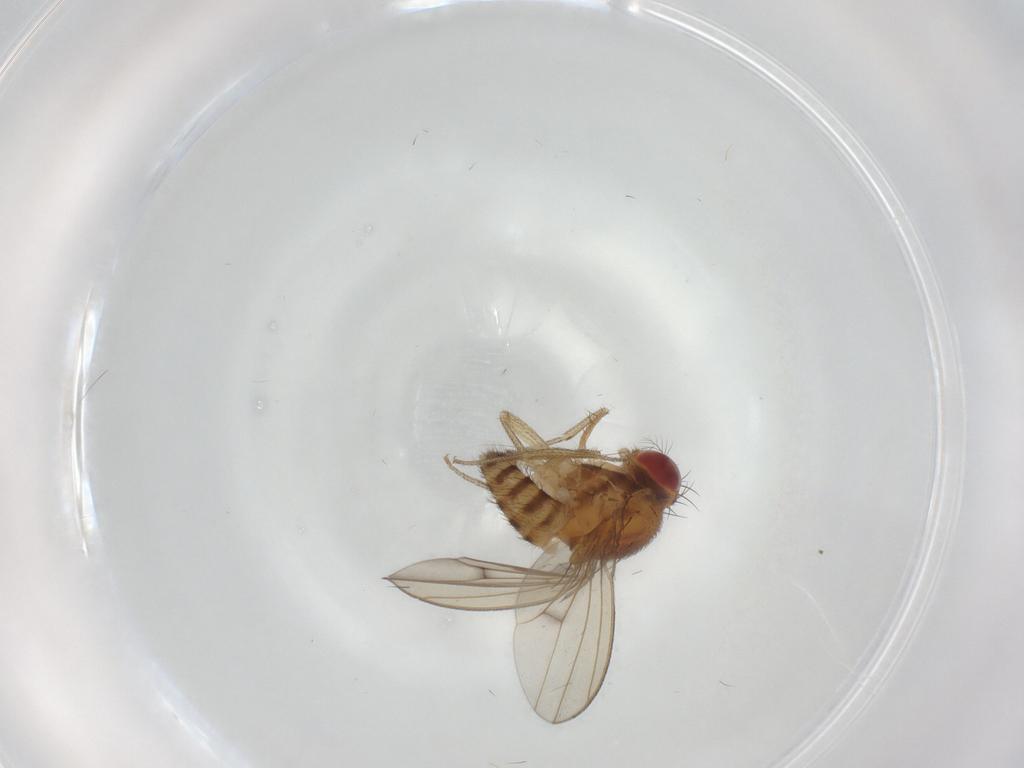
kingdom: Animalia
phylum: Arthropoda
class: Insecta
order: Diptera
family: Drosophilidae
